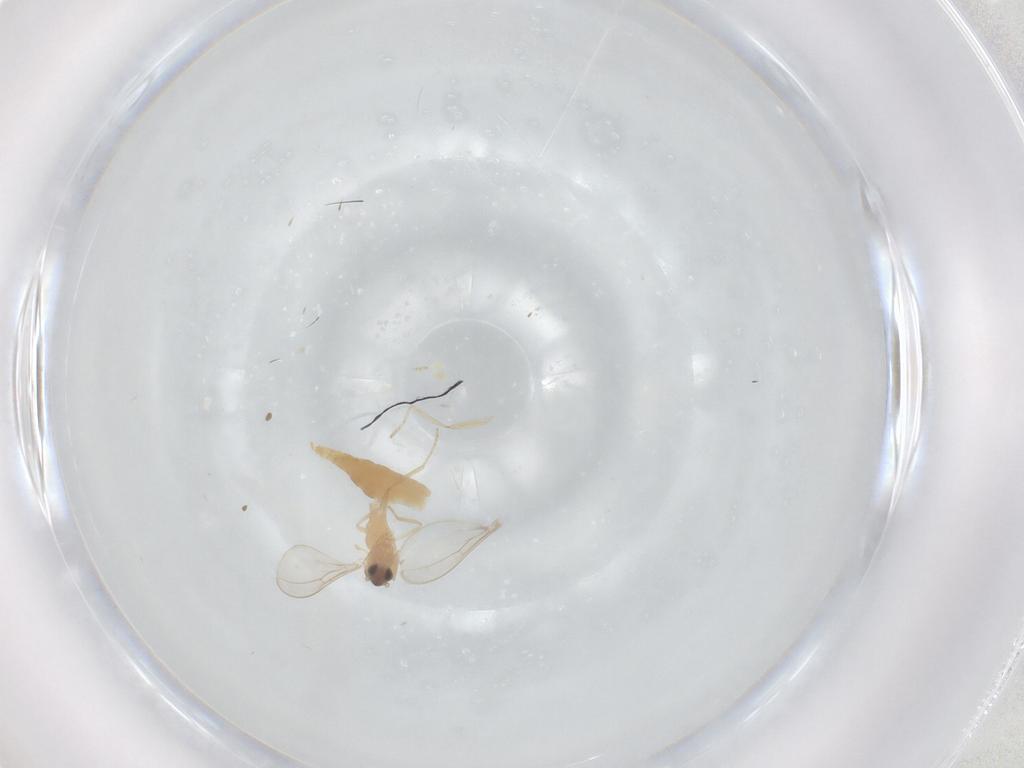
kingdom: Animalia
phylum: Arthropoda
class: Insecta
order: Diptera
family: Cecidomyiidae
